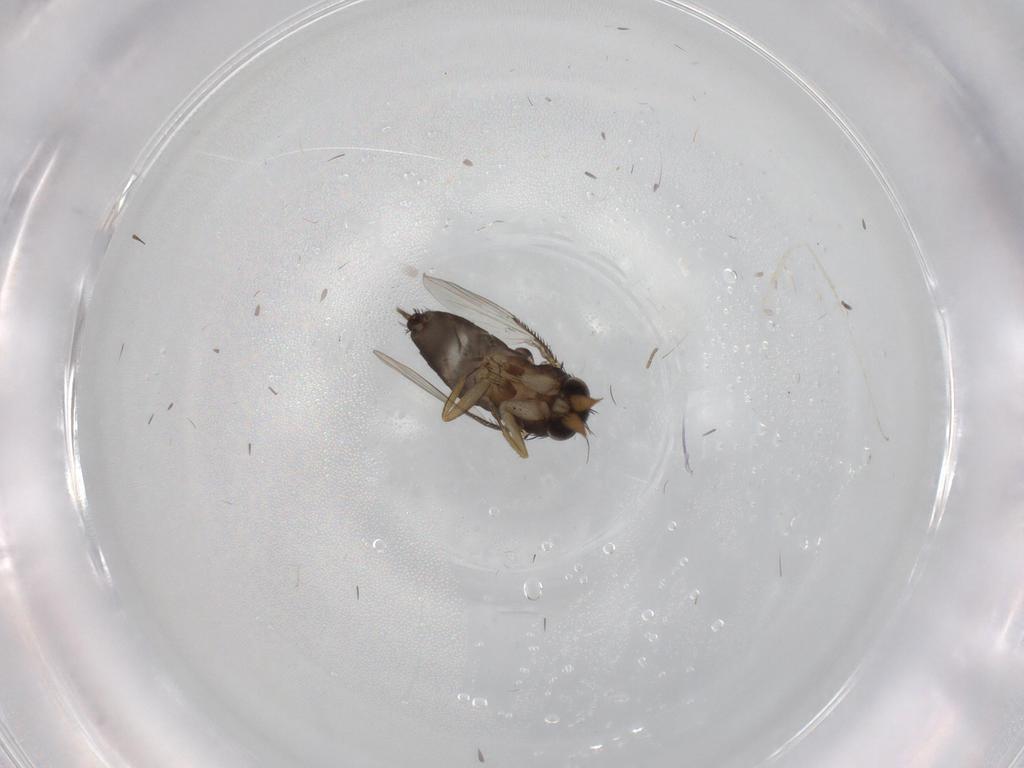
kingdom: Animalia
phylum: Arthropoda
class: Insecta
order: Diptera
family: Phoridae
